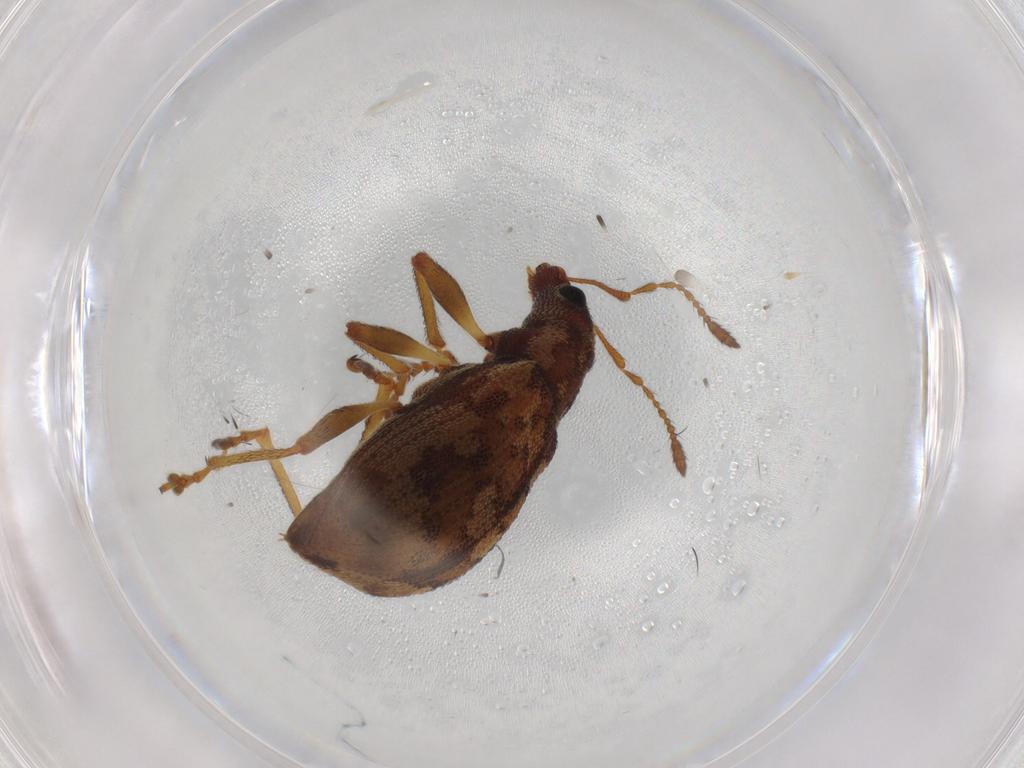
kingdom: Animalia
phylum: Arthropoda
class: Insecta
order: Coleoptera
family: Curculionidae
